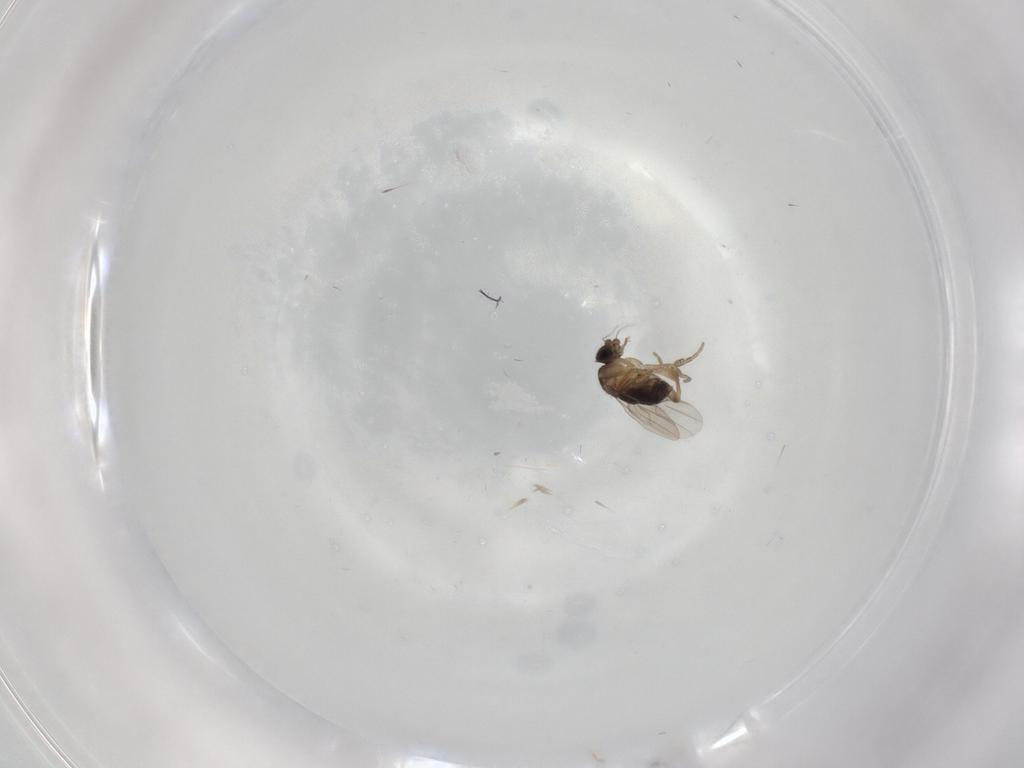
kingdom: Animalia
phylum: Arthropoda
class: Insecta
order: Diptera
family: Phoridae
